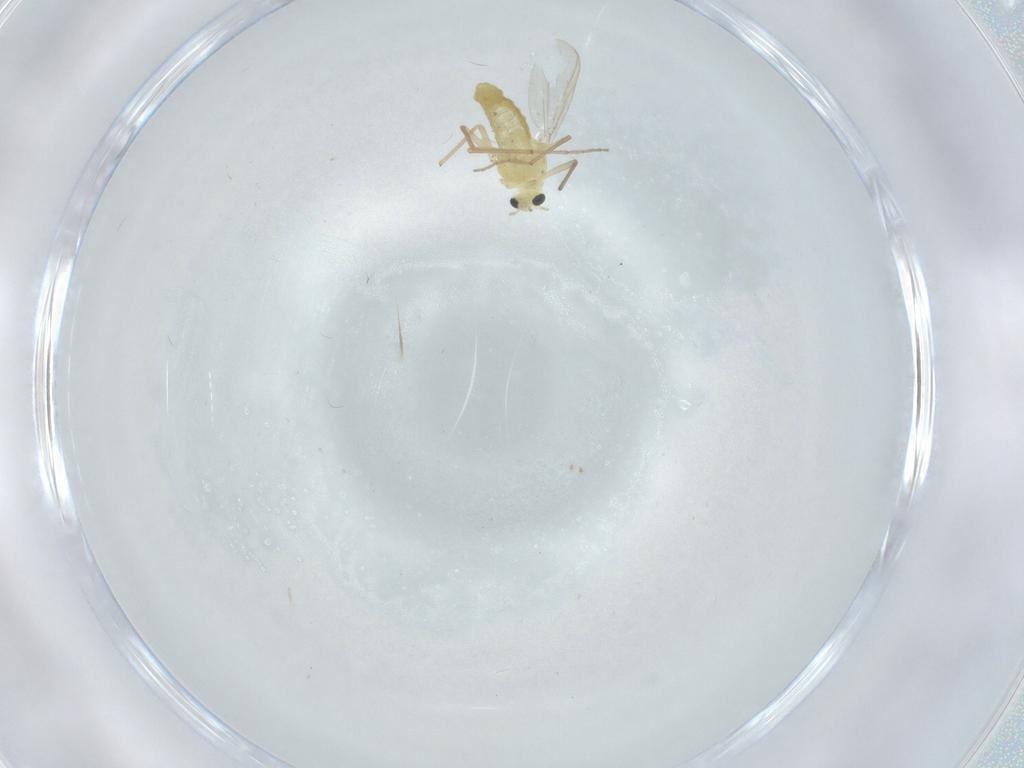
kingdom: Animalia
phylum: Arthropoda
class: Insecta
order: Diptera
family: Chironomidae
